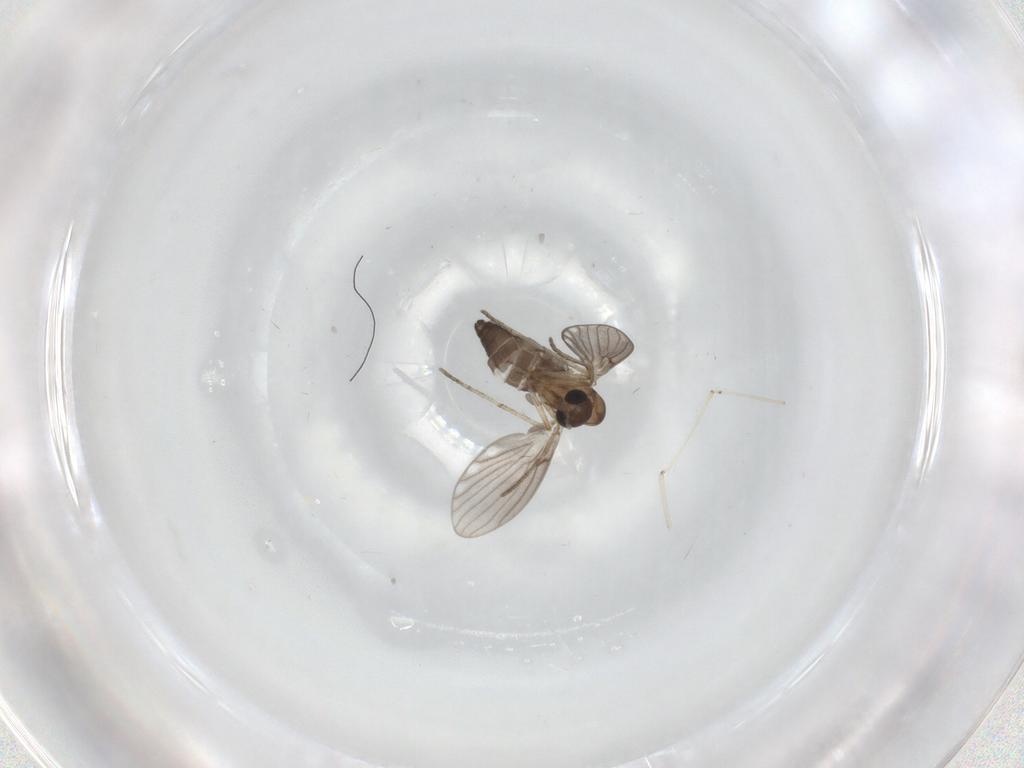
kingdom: Animalia
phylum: Arthropoda
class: Insecta
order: Diptera
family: Psychodidae
